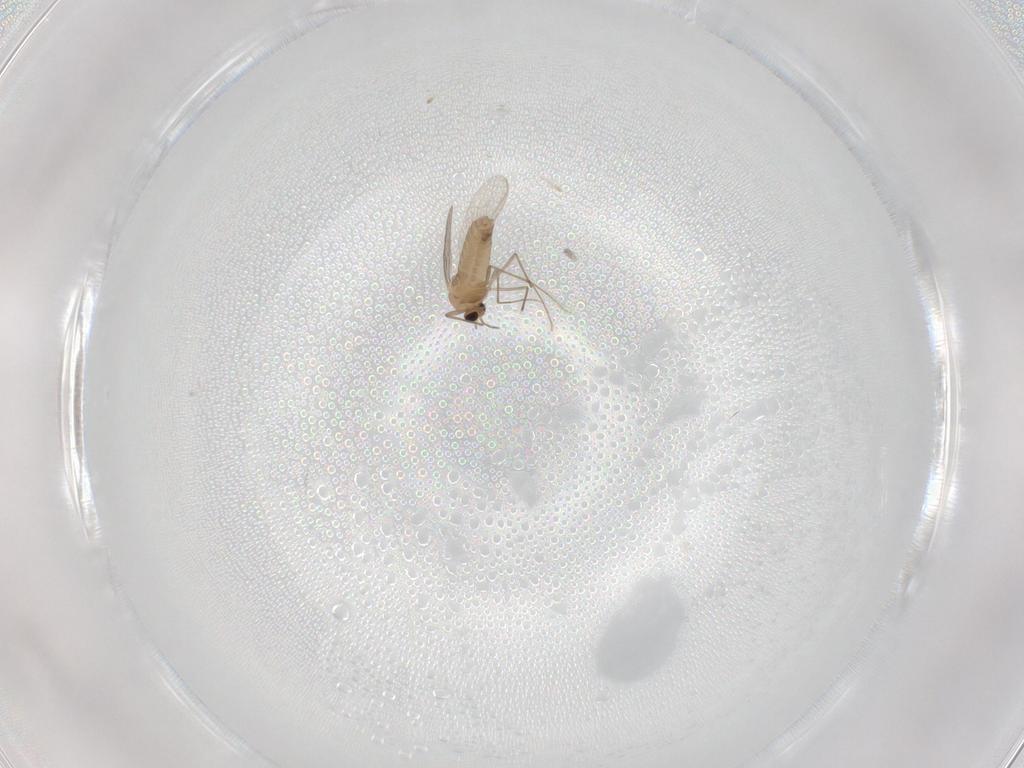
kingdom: Animalia
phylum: Arthropoda
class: Insecta
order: Diptera
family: Chironomidae
